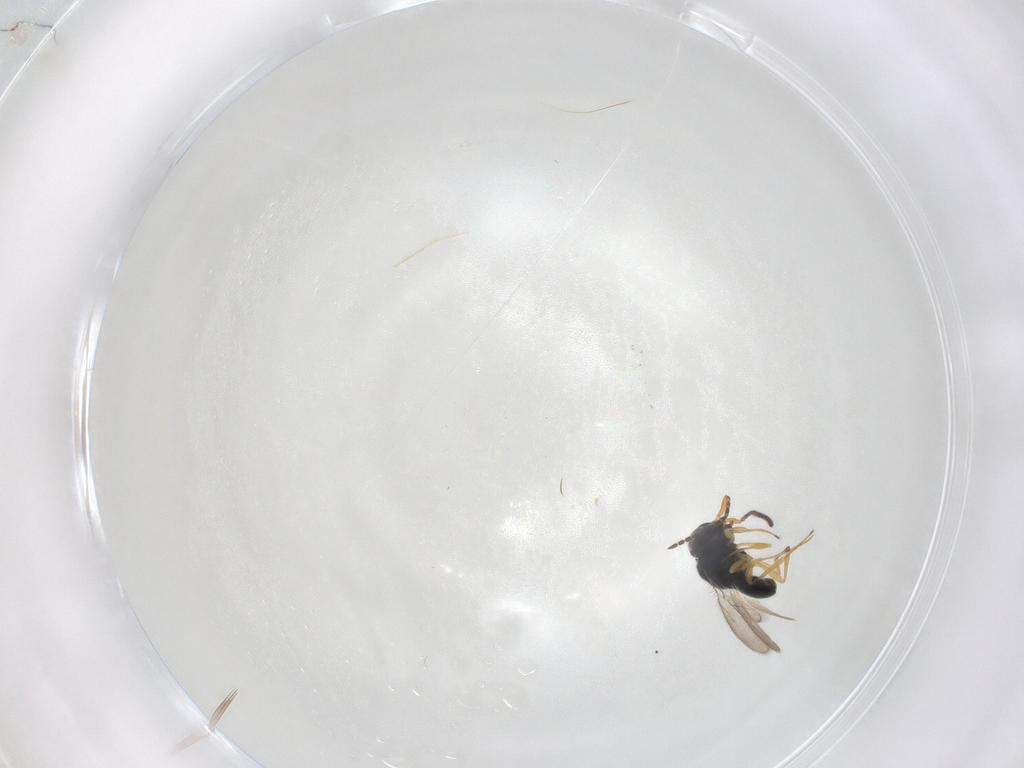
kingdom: Animalia
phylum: Arthropoda
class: Insecta
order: Hymenoptera
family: Scelionidae
